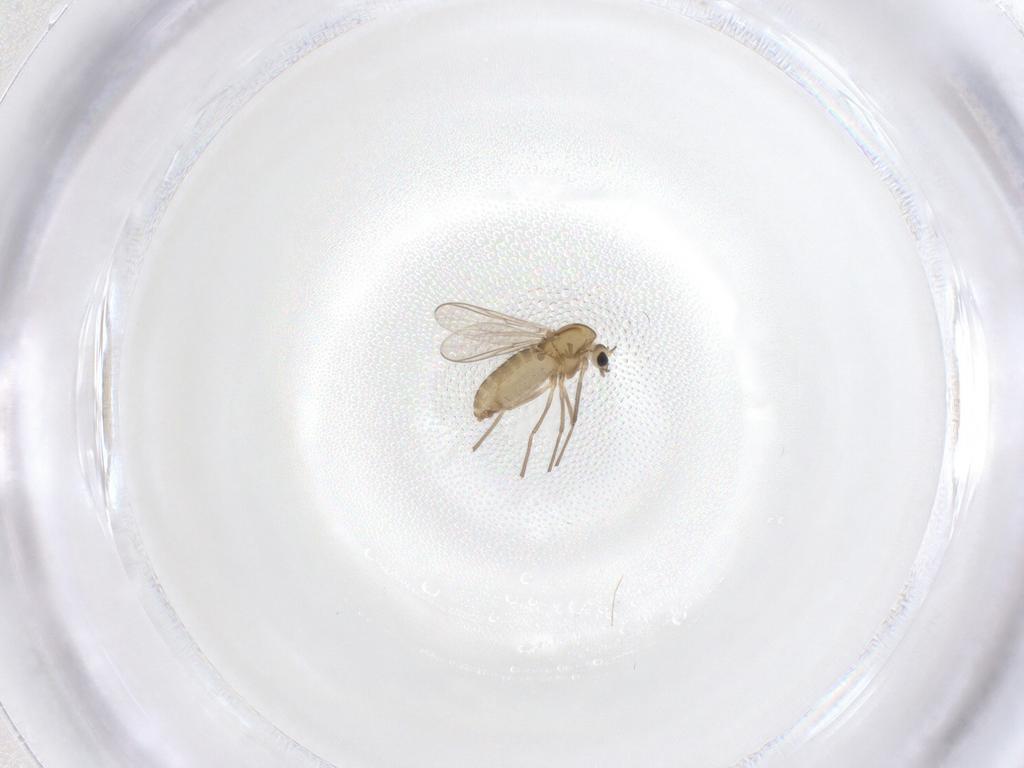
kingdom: Animalia
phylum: Arthropoda
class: Insecta
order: Diptera
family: Chironomidae
